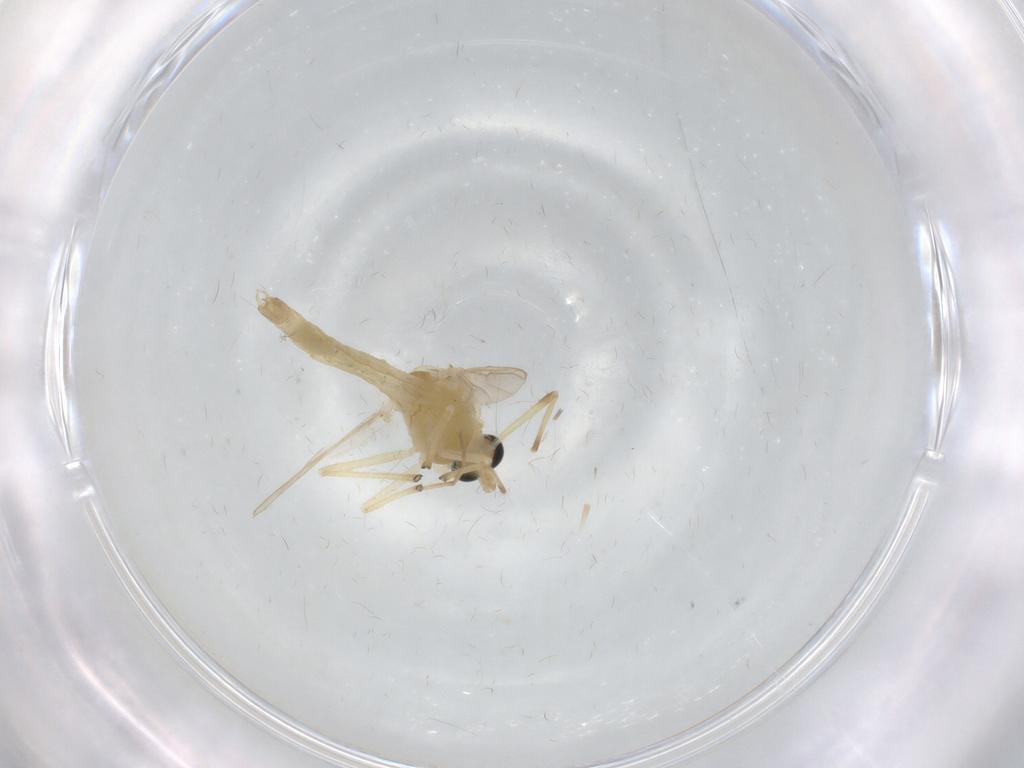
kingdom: Animalia
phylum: Arthropoda
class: Insecta
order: Diptera
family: Chironomidae
